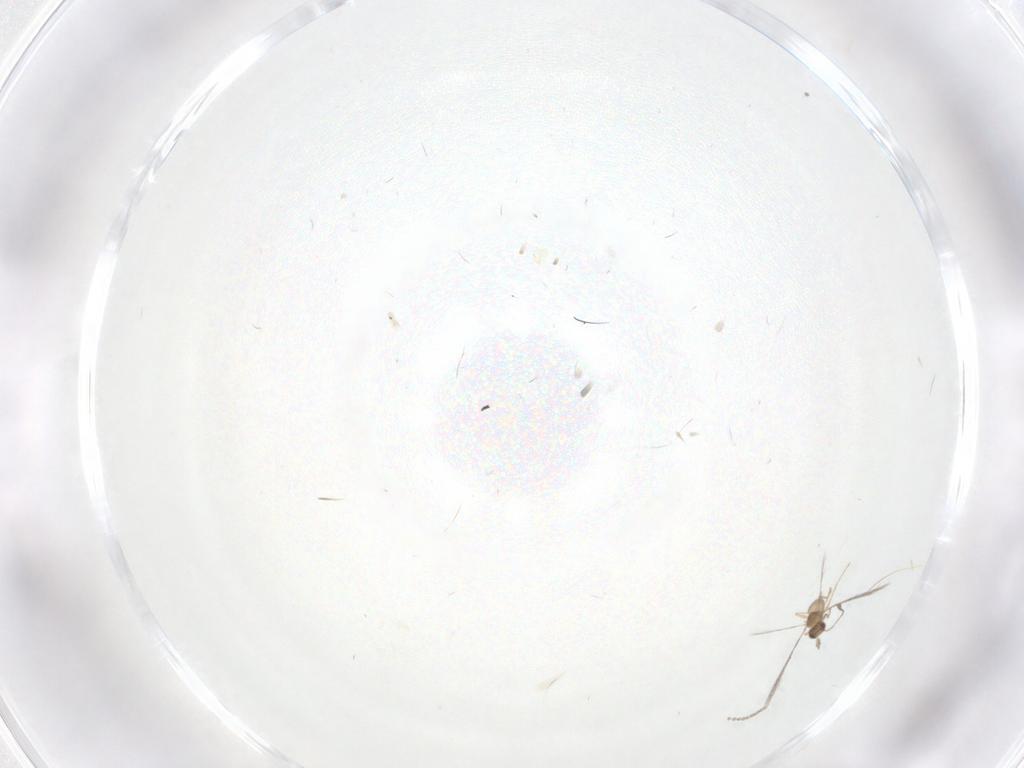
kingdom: Animalia
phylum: Arthropoda
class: Insecta
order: Diptera
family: Cecidomyiidae
